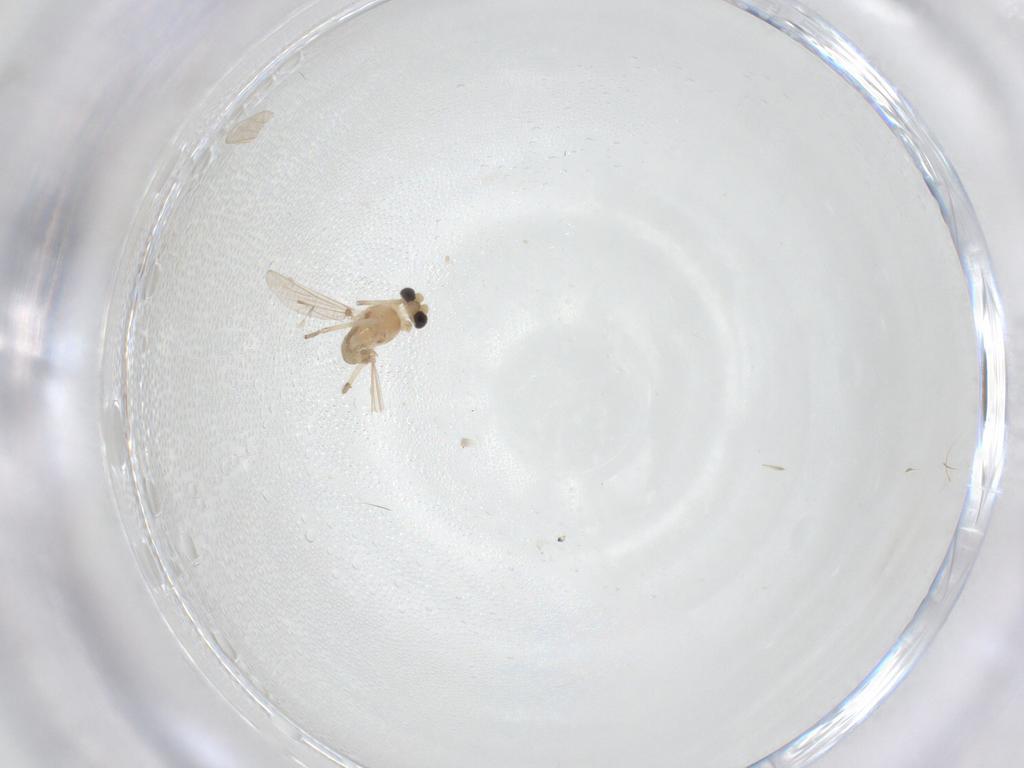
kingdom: Animalia
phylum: Arthropoda
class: Insecta
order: Diptera
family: Chironomidae
